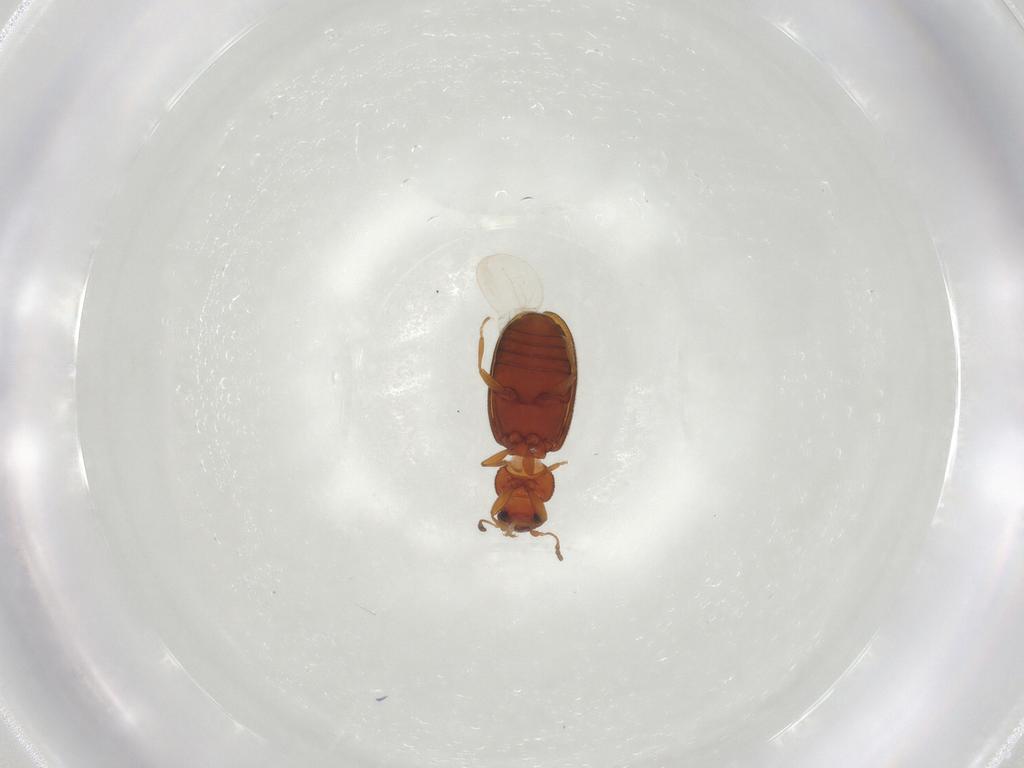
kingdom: Animalia
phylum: Arthropoda
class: Insecta
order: Coleoptera
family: Latridiidae
